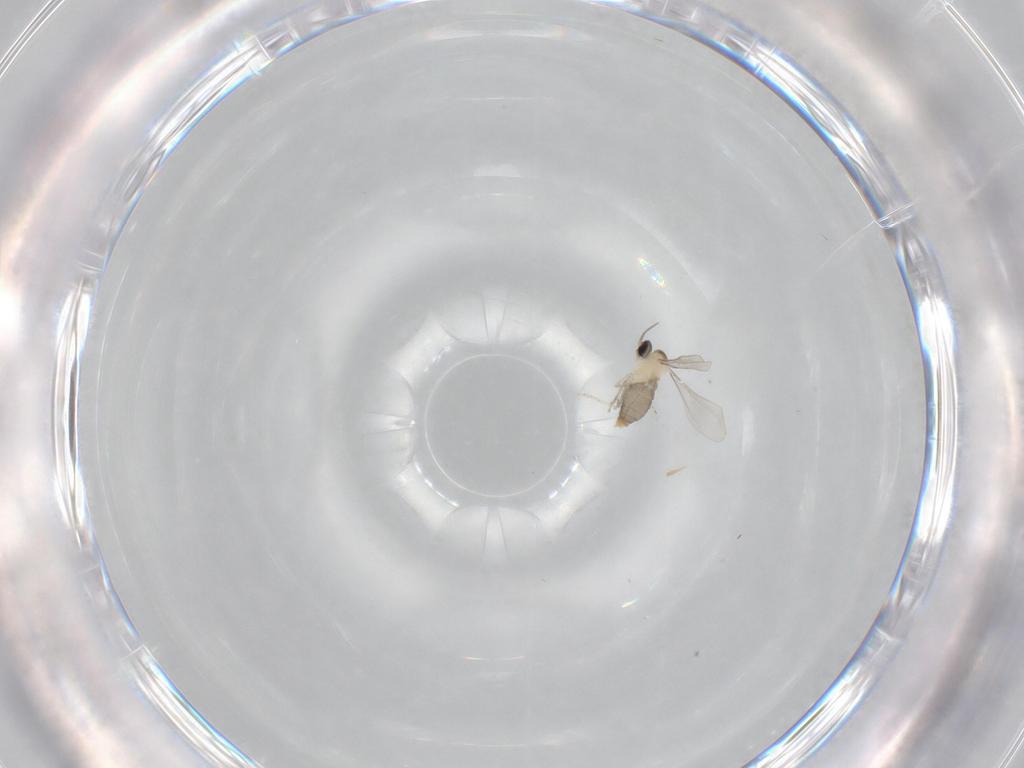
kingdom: Animalia
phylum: Arthropoda
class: Insecta
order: Diptera
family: Cecidomyiidae
